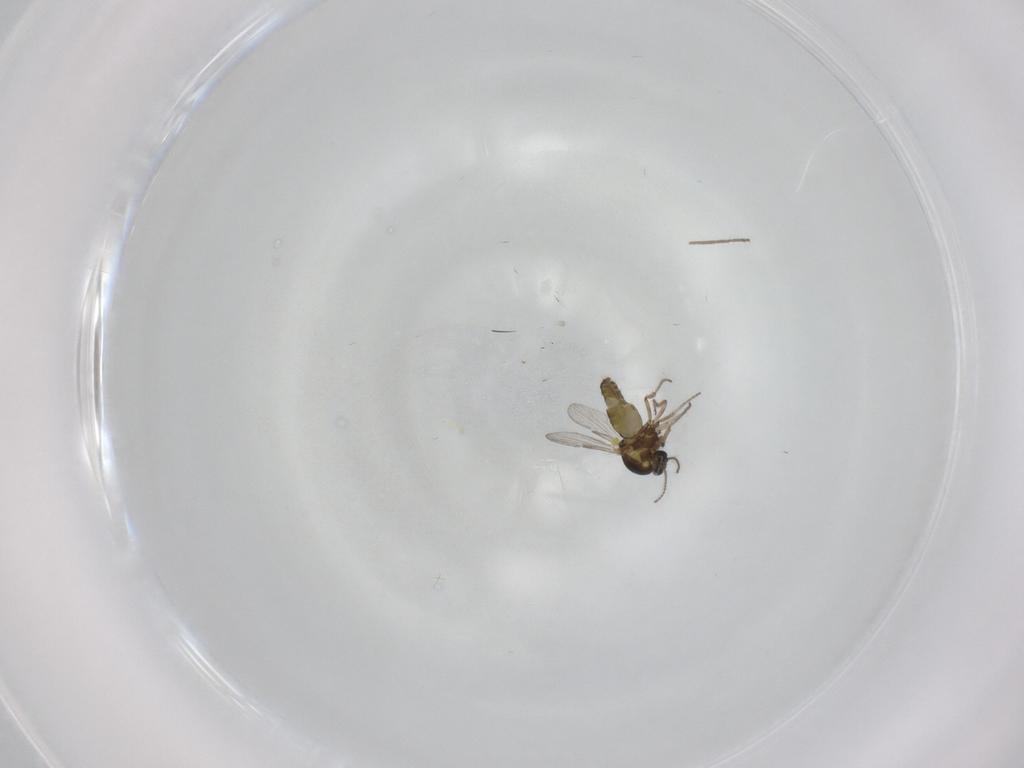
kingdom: Animalia
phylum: Arthropoda
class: Insecta
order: Diptera
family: Ceratopogonidae
